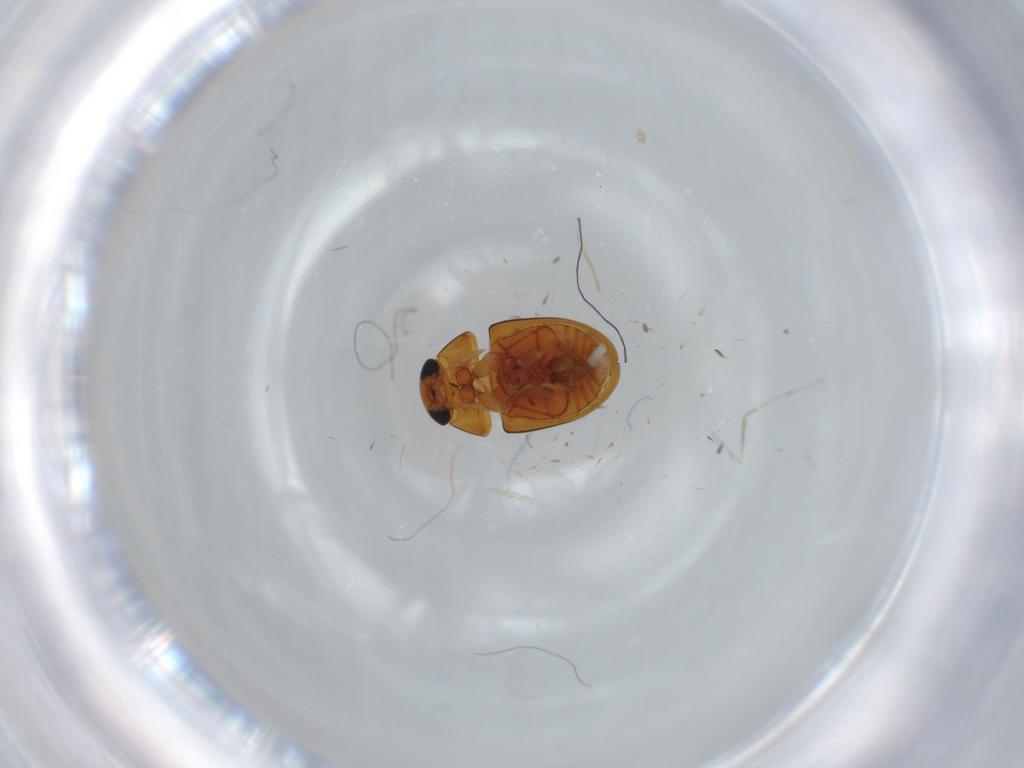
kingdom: Animalia
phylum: Arthropoda
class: Insecta
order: Coleoptera
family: Phalacridae
